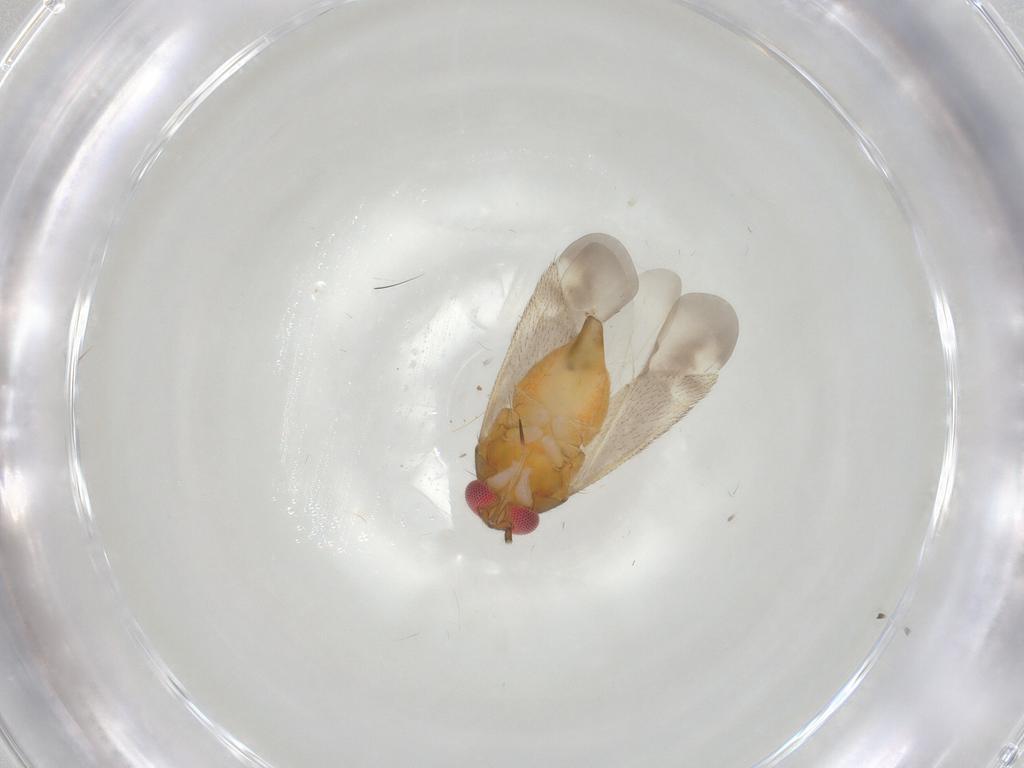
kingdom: Animalia
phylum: Arthropoda
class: Insecta
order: Hemiptera
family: Miridae
